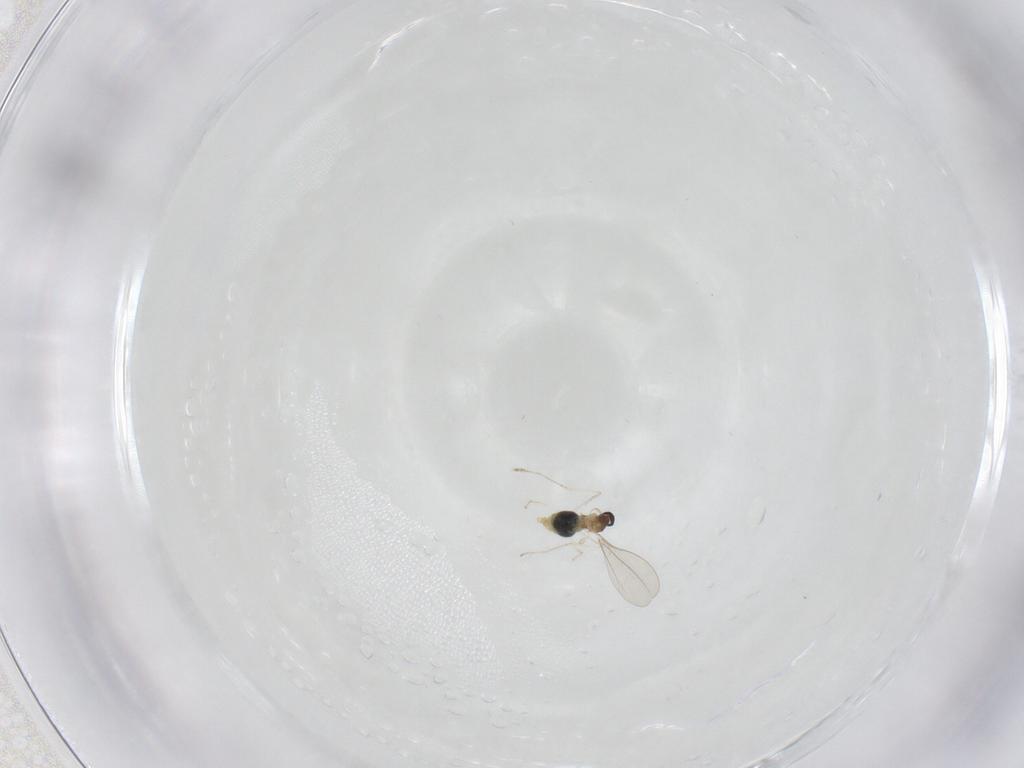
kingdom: Animalia
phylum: Arthropoda
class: Insecta
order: Diptera
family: Cecidomyiidae
